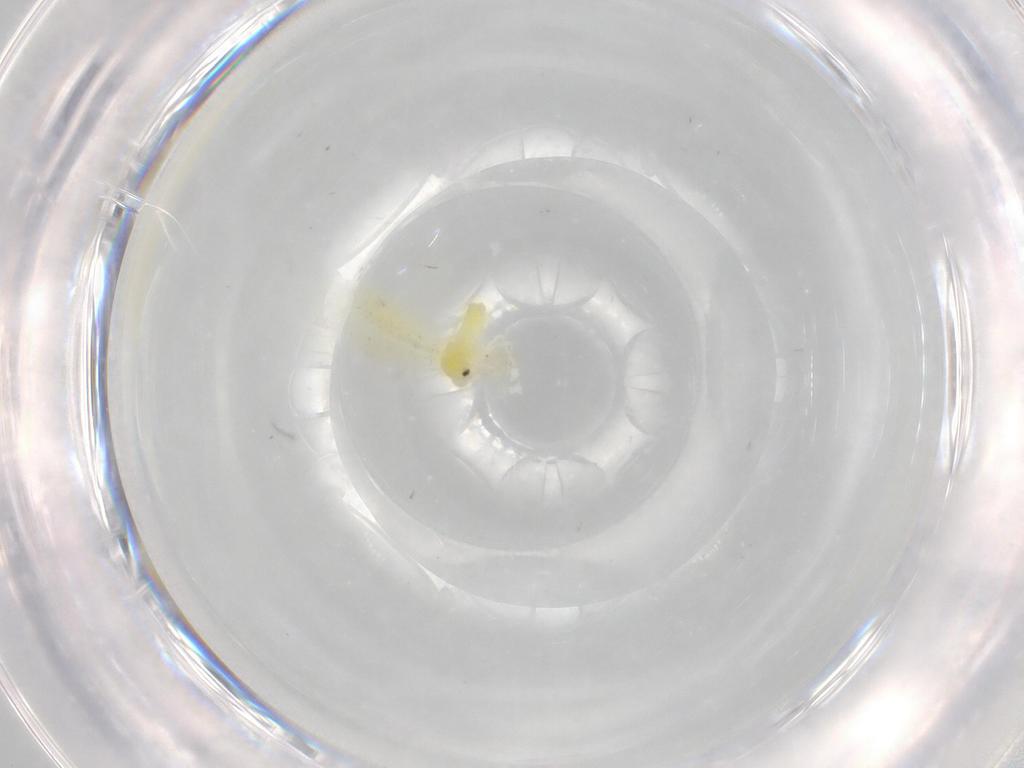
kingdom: Animalia
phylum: Arthropoda
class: Insecta
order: Hemiptera
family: Aleyrodidae
